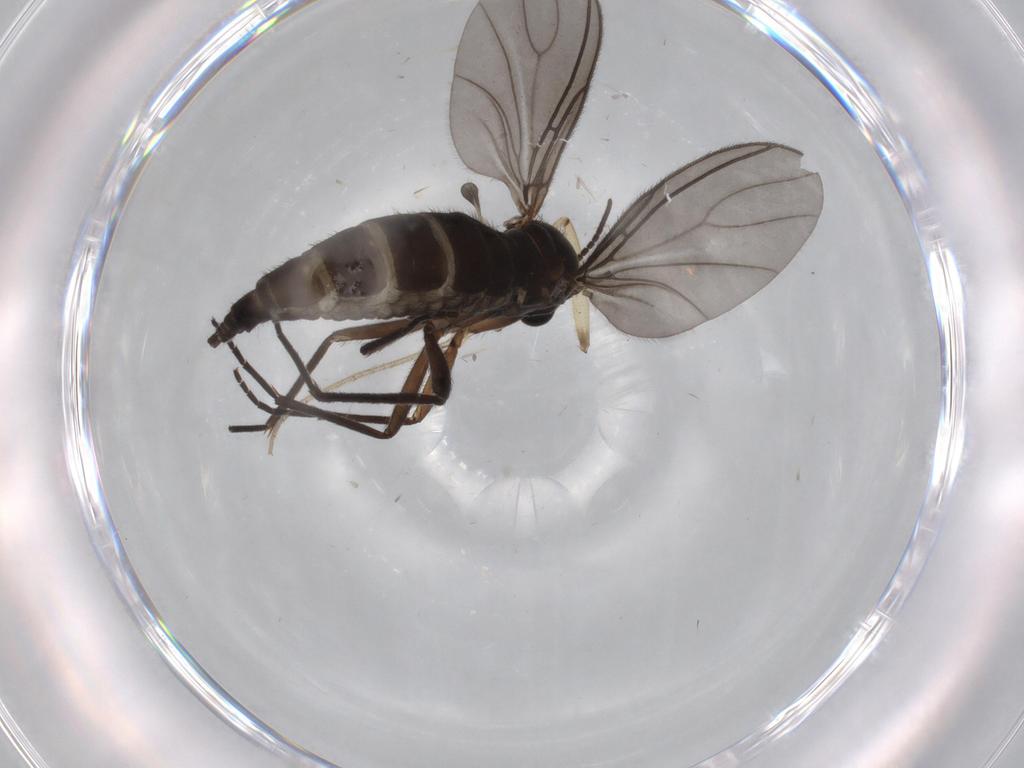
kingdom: Animalia
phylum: Arthropoda
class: Insecta
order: Diptera
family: Sciaridae
